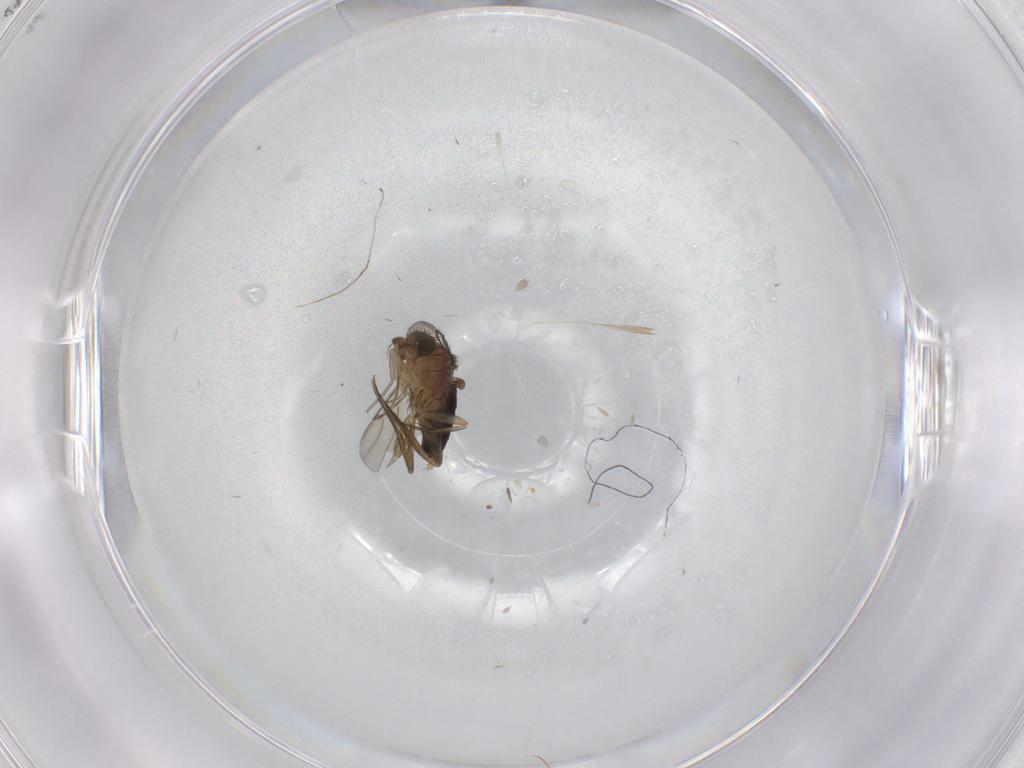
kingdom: Animalia
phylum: Arthropoda
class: Insecta
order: Diptera
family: Phoridae
